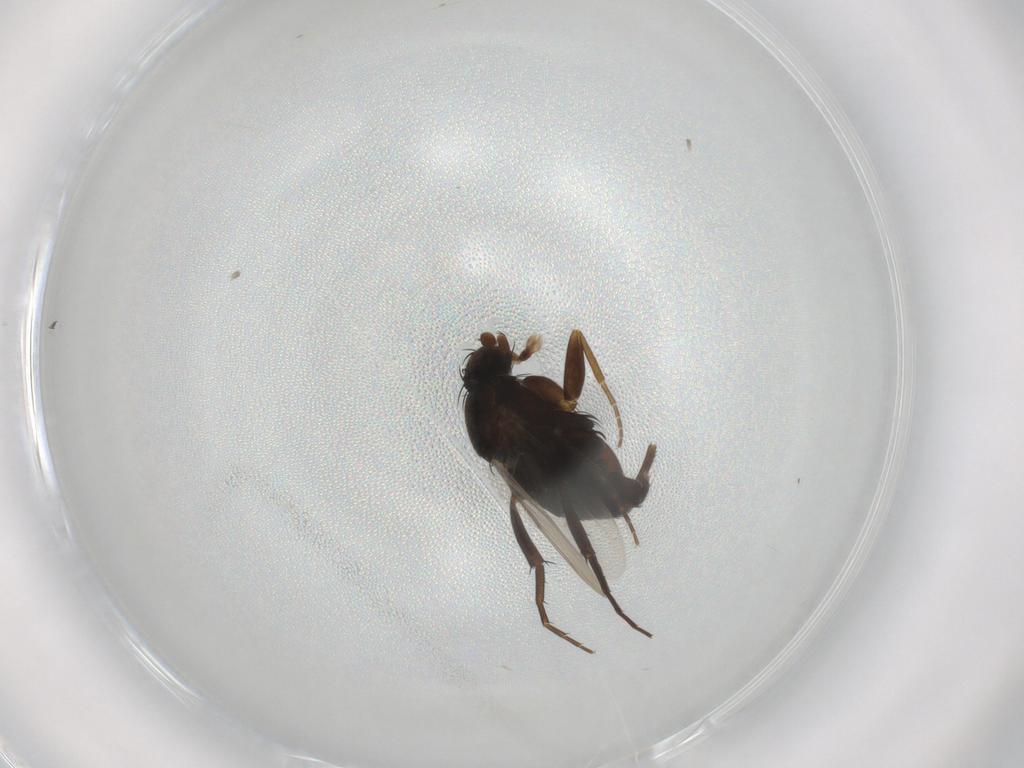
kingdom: Animalia
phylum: Arthropoda
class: Insecta
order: Diptera
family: Phoridae
